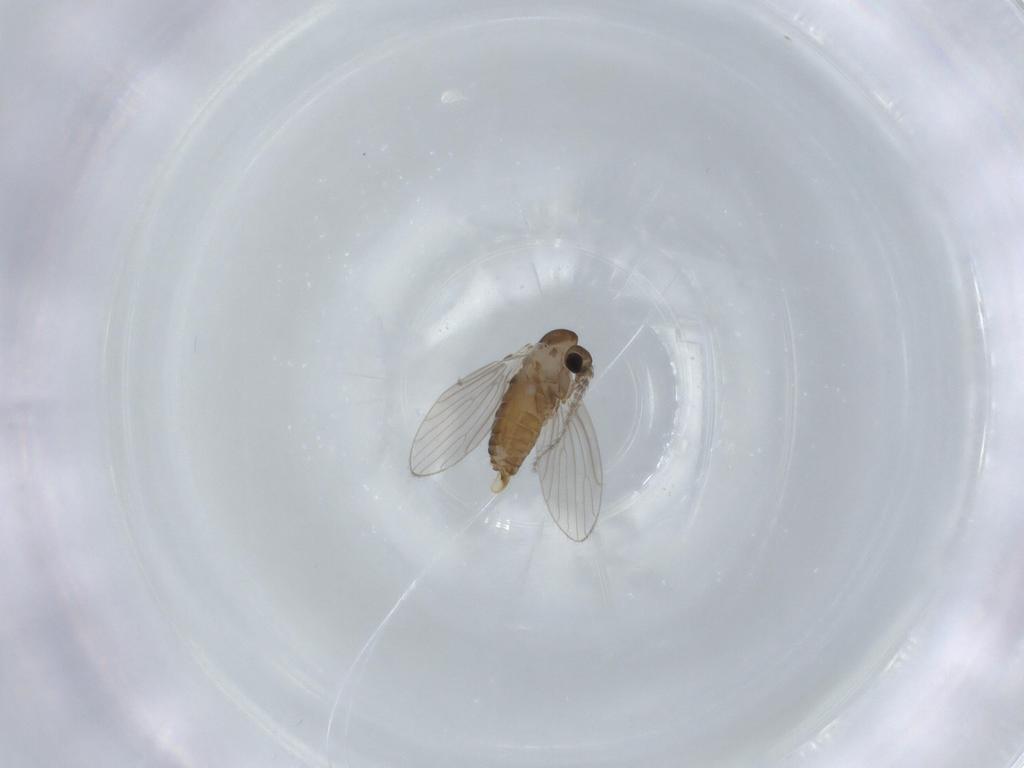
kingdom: Animalia
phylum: Arthropoda
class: Insecta
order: Diptera
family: Psychodidae
